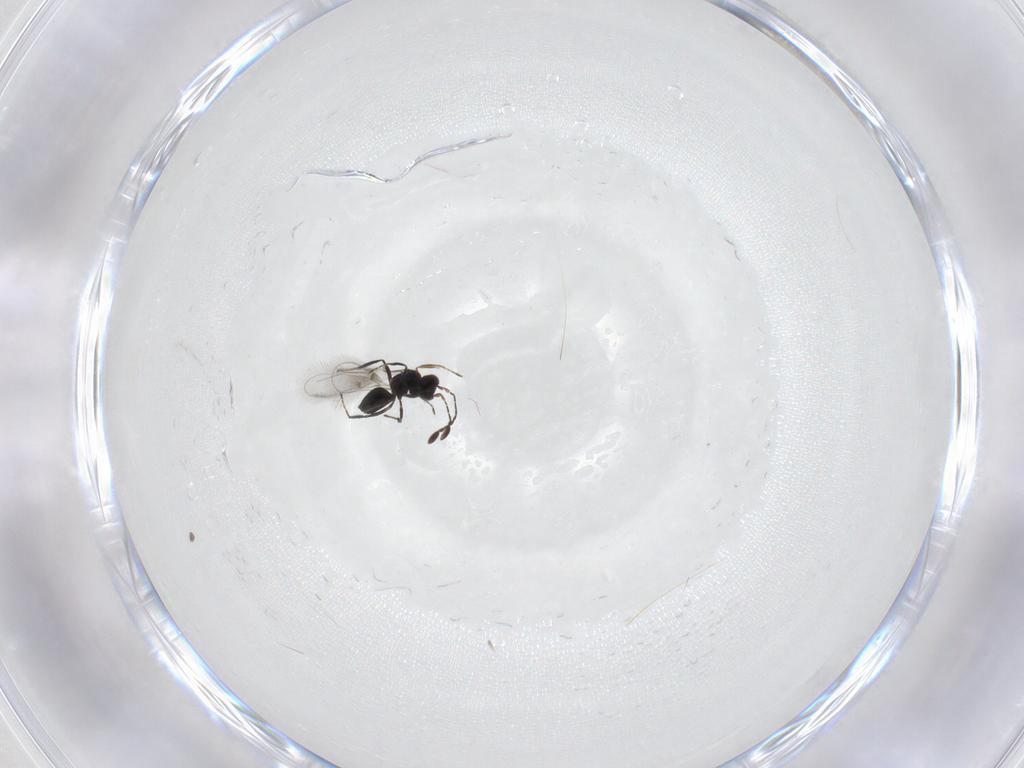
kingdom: Animalia
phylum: Arthropoda
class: Insecta
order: Hymenoptera
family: Mymaridae
